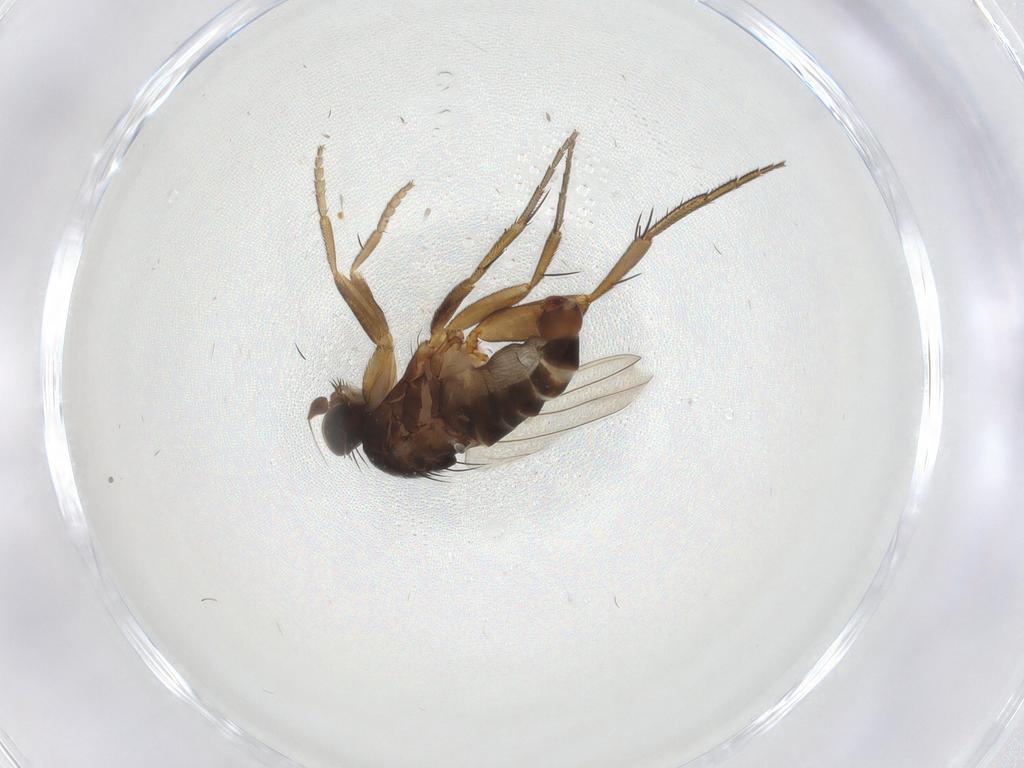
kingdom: Animalia
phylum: Arthropoda
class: Insecta
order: Diptera
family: Phoridae
